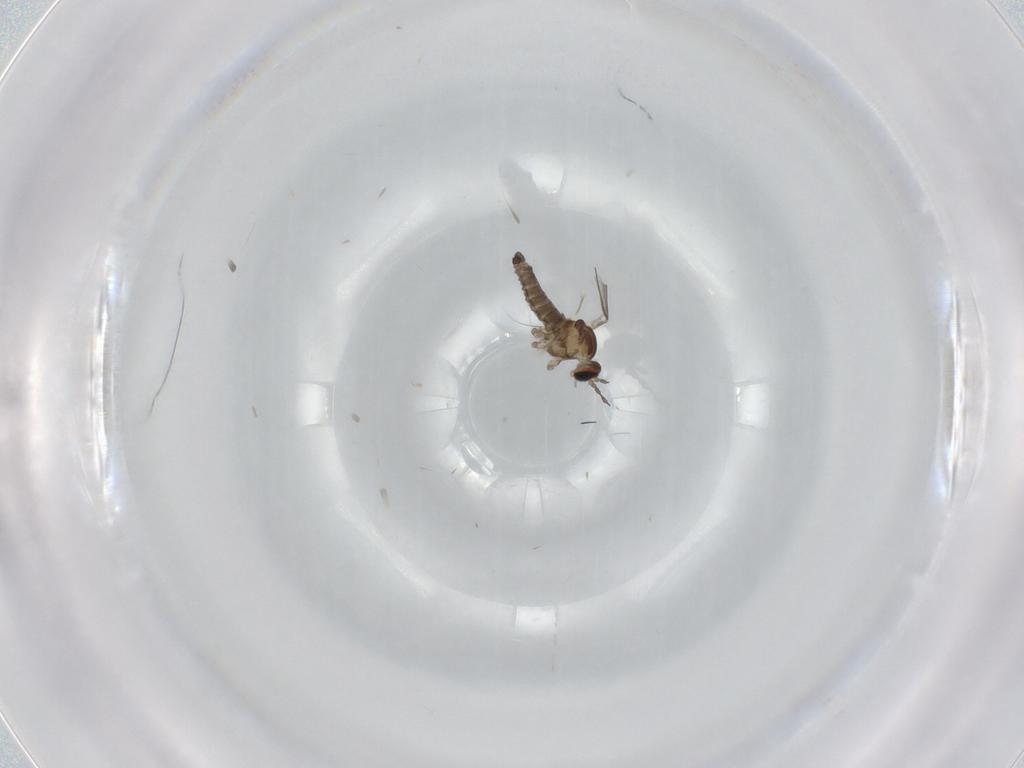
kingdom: Animalia
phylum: Arthropoda
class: Insecta
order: Diptera
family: Cecidomyiidae
